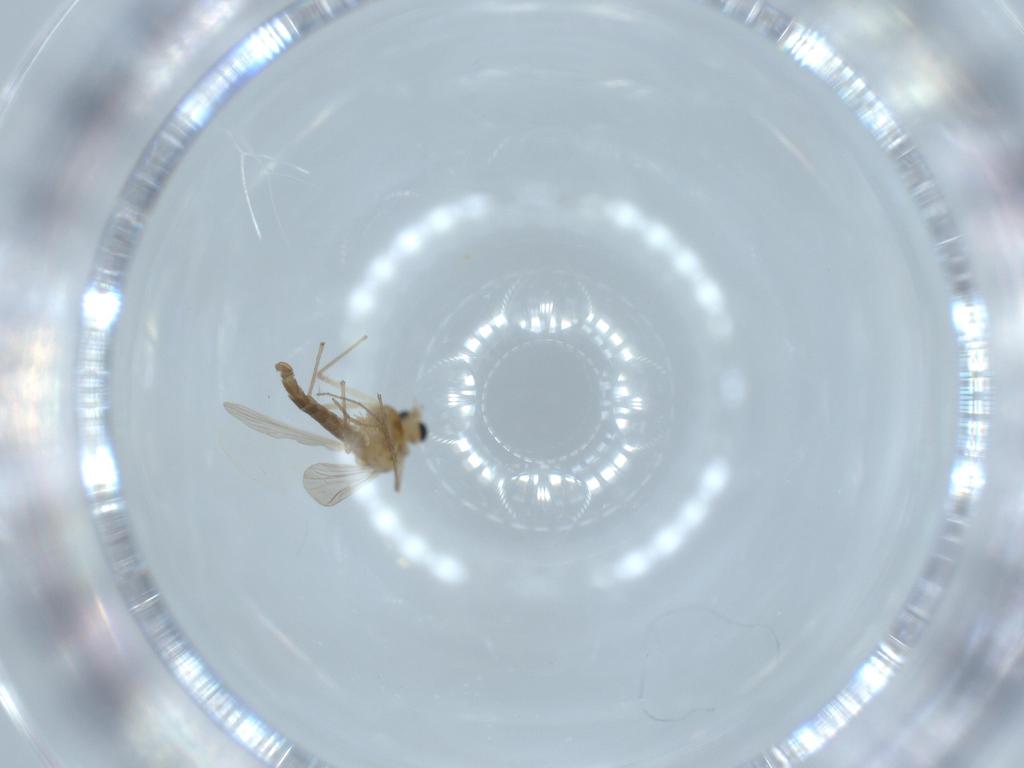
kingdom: Animalia
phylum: Arthropoda
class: Insecta
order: Diptera
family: Chironomidae
